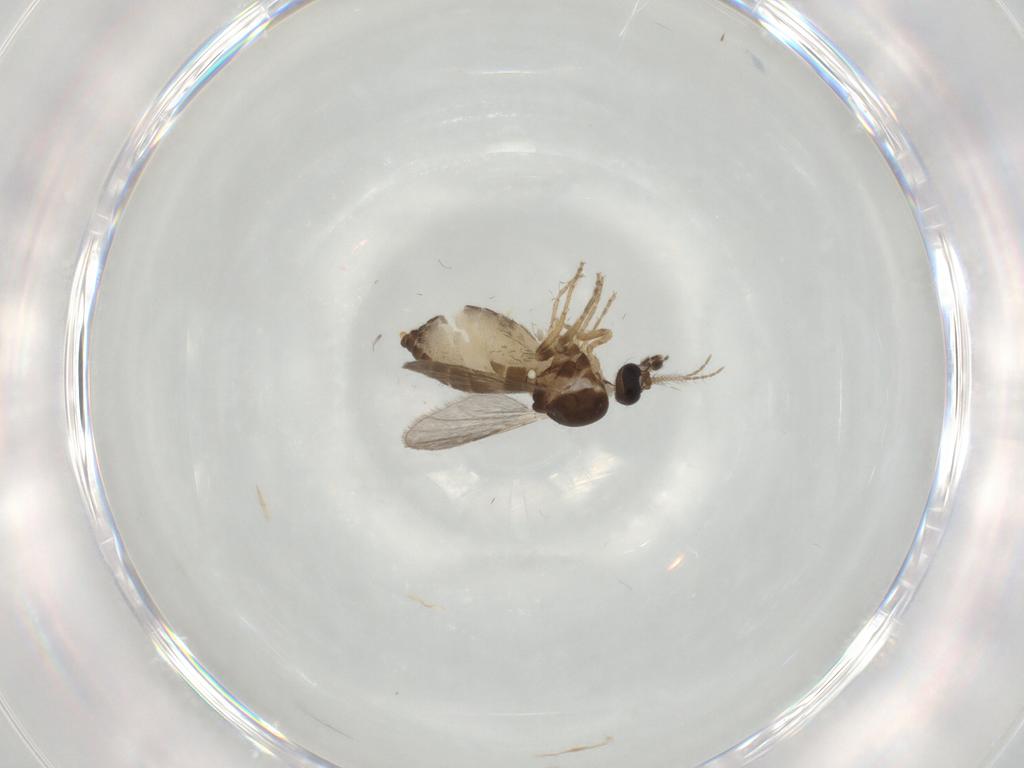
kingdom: Animalia
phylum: Arthropoda
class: Insecta
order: Diptera
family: Ceratopogonidae
